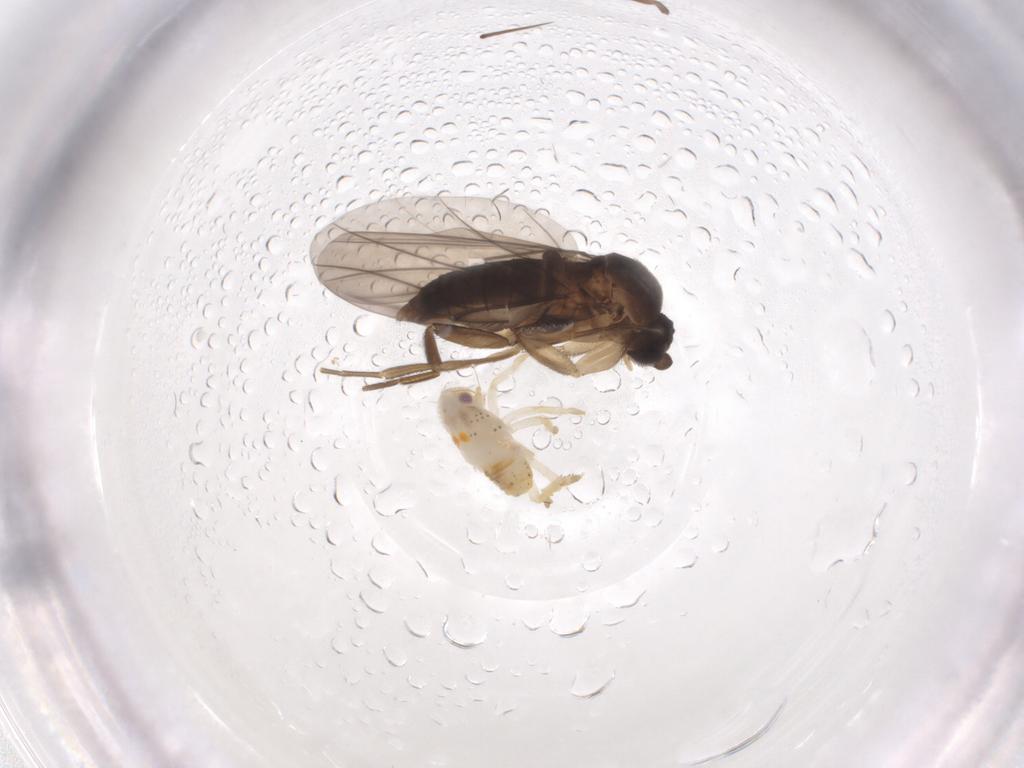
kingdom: Animalia
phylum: Arthropoda
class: Insecta
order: Diptera
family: Phoridae
